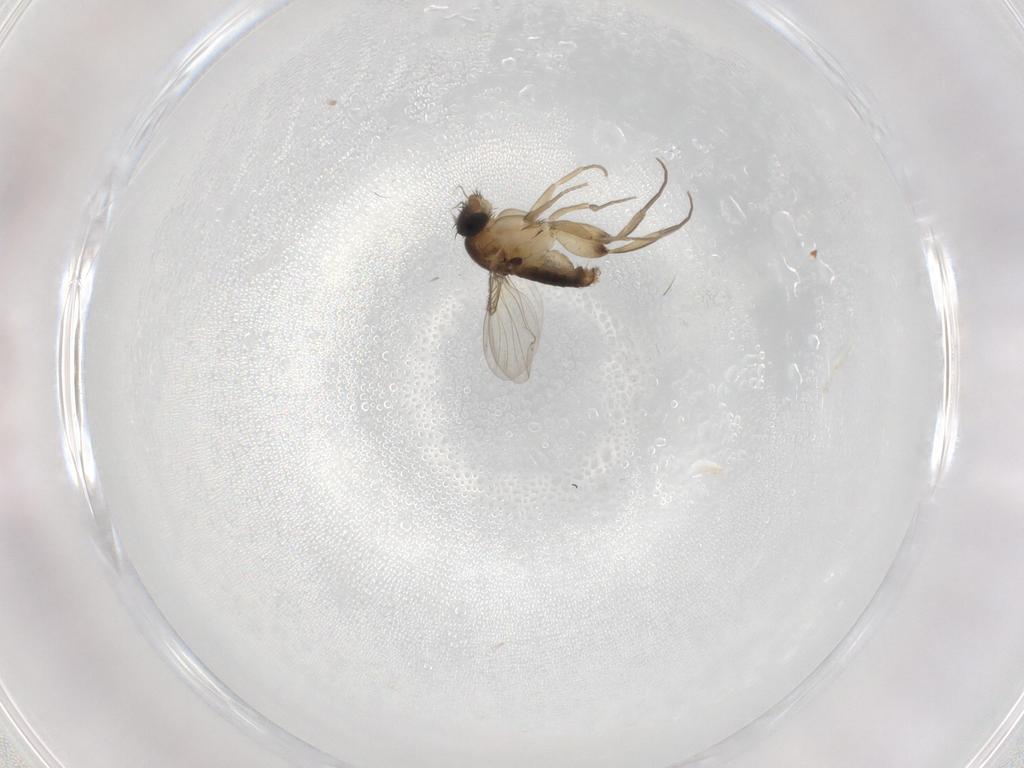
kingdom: Animalia
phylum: Arthropoda
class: Insecta
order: Diptera
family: Phoridae
